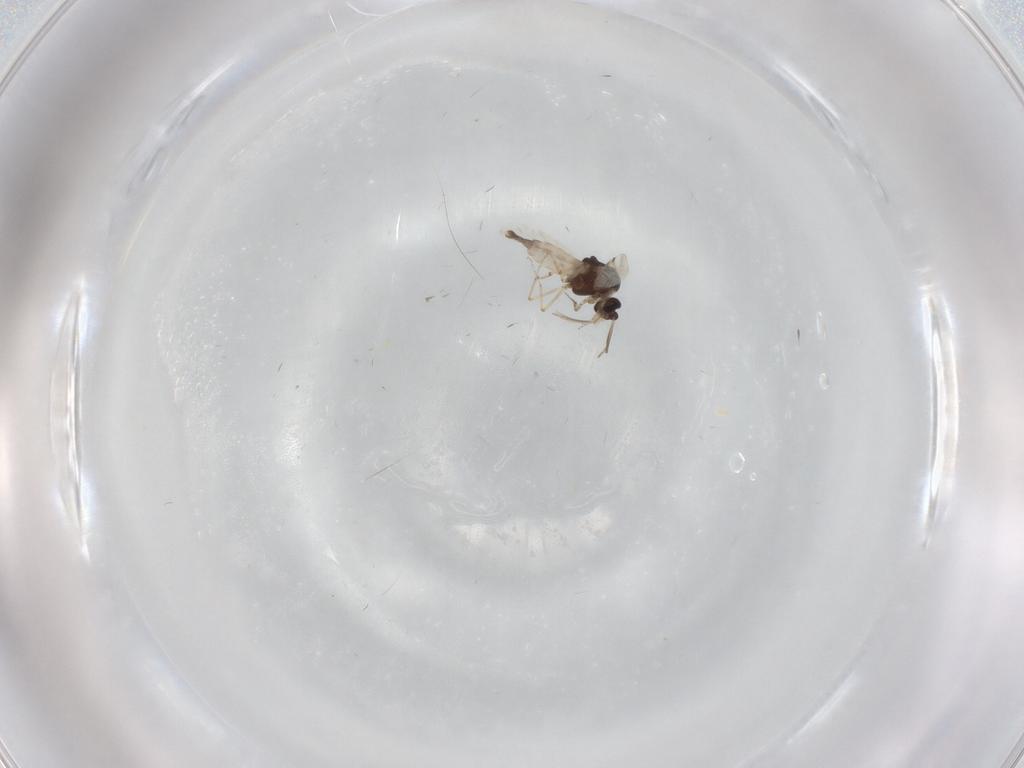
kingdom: Animalia
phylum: Arthropoda
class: Insecta
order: Diptera
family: Chironomidae
